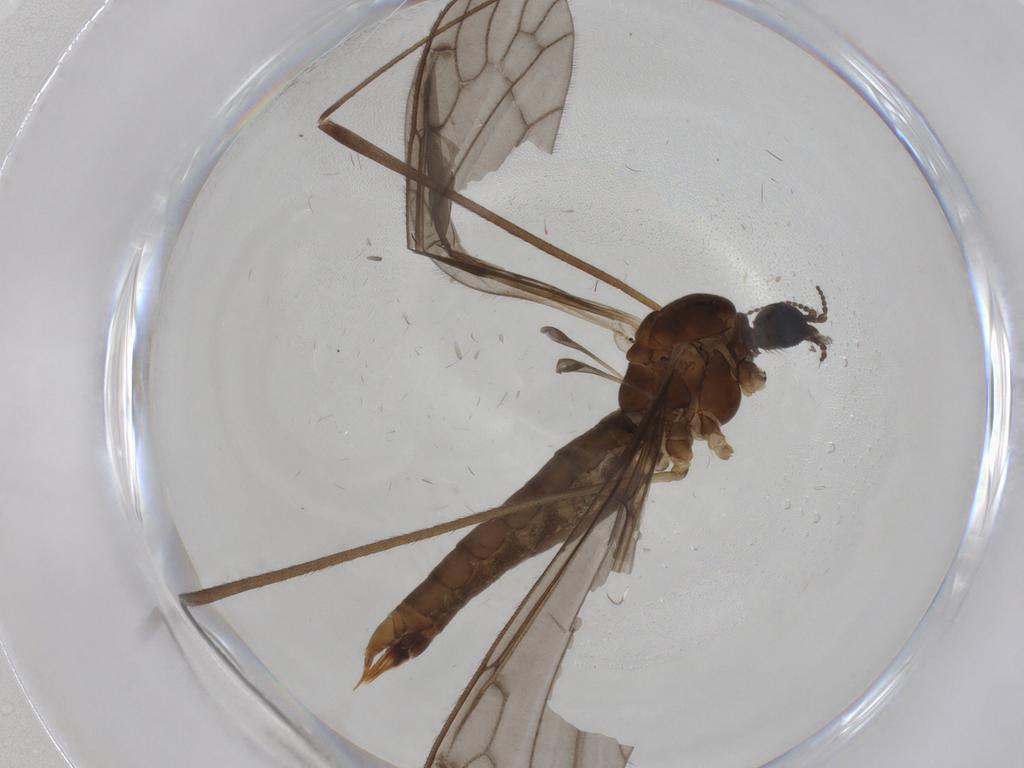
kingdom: Animalia
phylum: Arthropoda
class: Insecta
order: Diptera
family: Limoniidae
